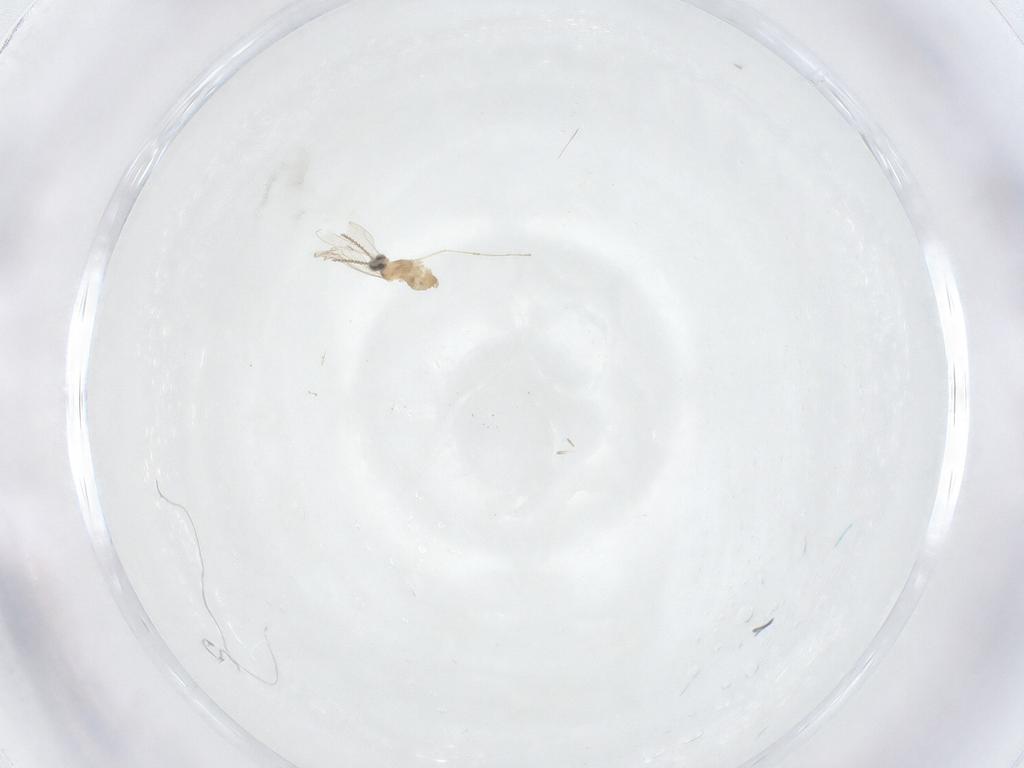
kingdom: Animalia
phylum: Arthropoda
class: Insecta
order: Diptera
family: Cecidomyiidae
